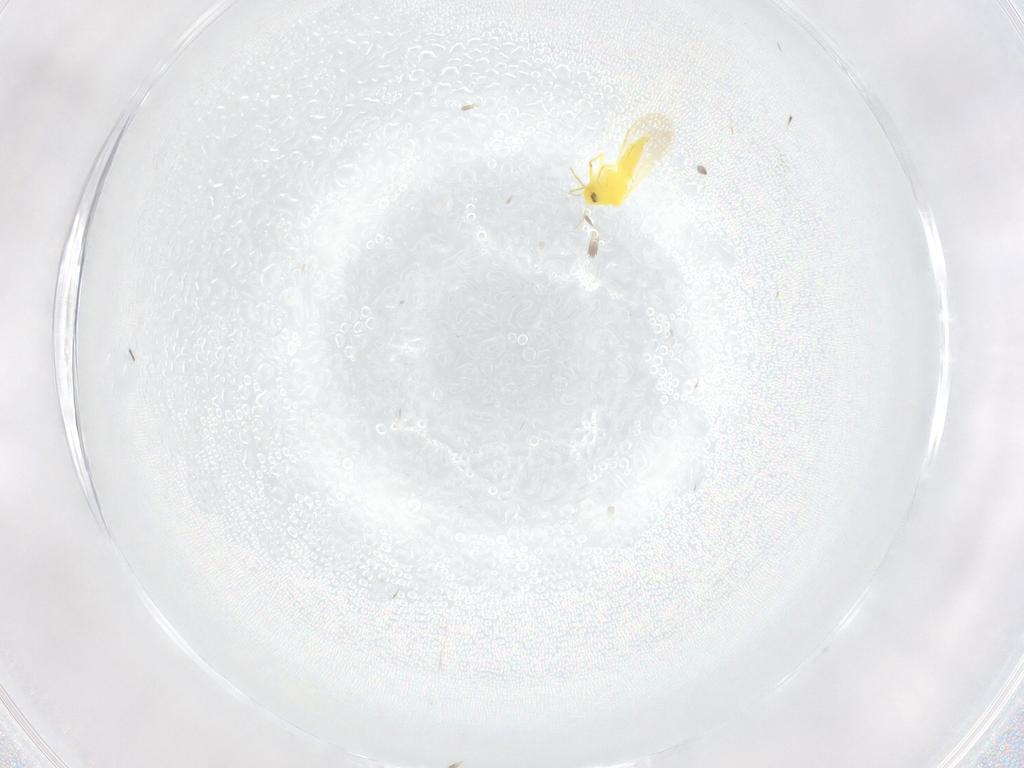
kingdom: Animalia
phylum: Arthropoda
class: Insecta
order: Hemiptera
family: Aleyrodidae
